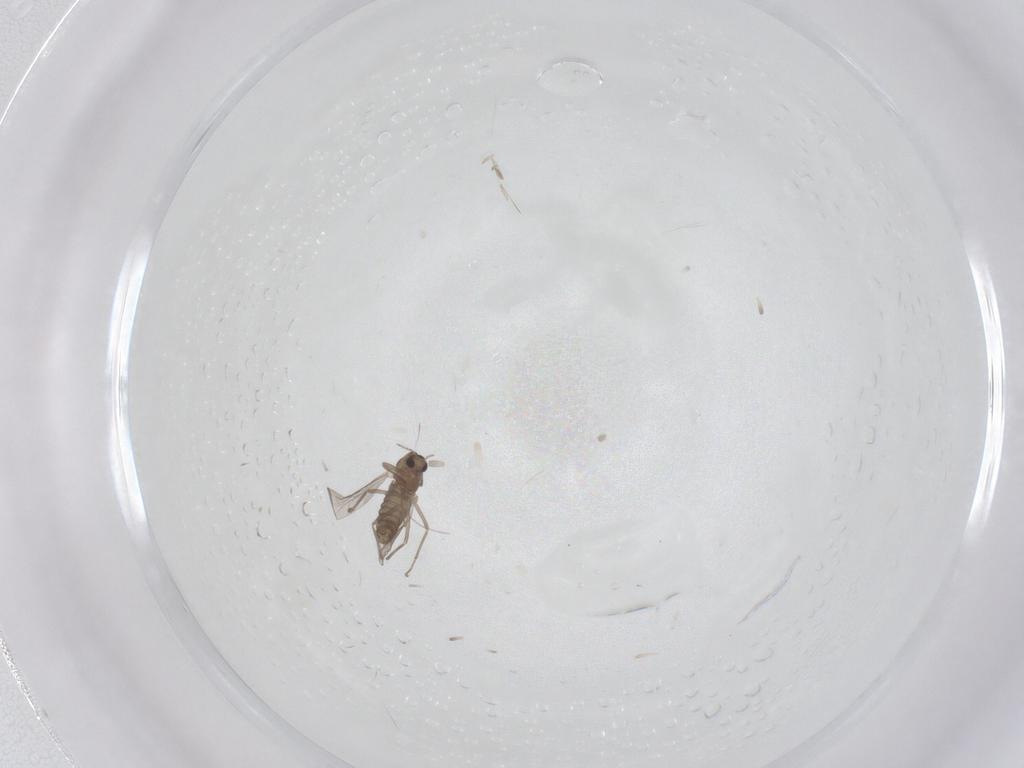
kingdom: Animalia
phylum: Arthropoda
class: Insecta
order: Diptera
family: Chironomidae
